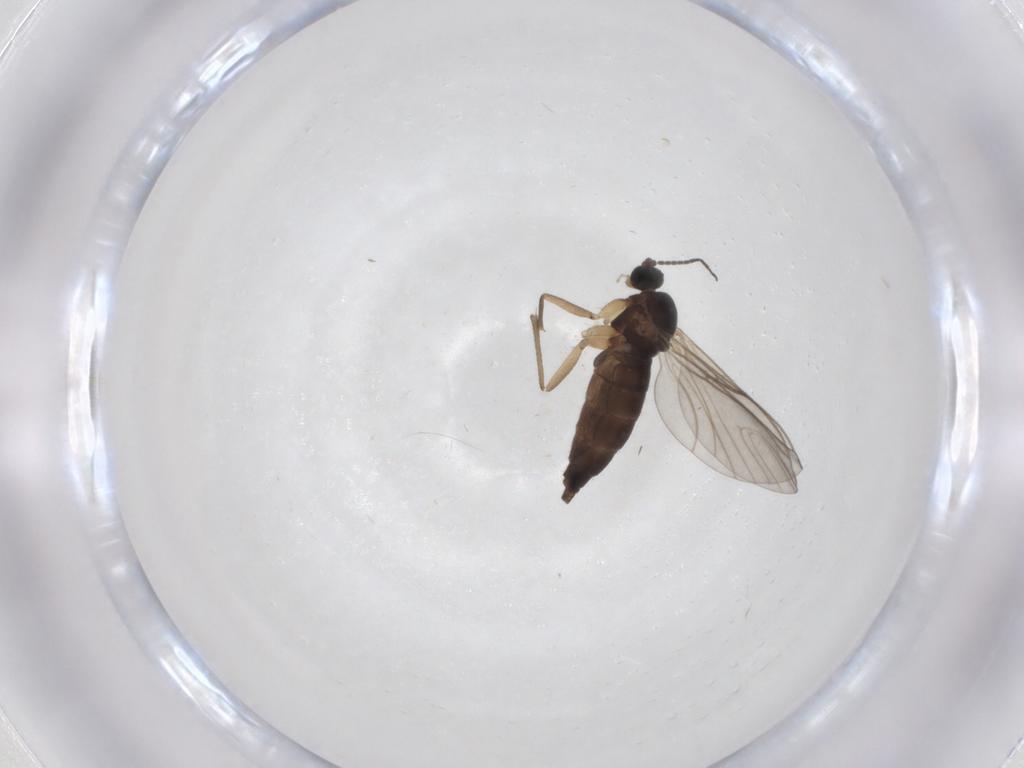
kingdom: Animalia
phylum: Arthropoda
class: Insecta
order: Diptera
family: Sciaridae
